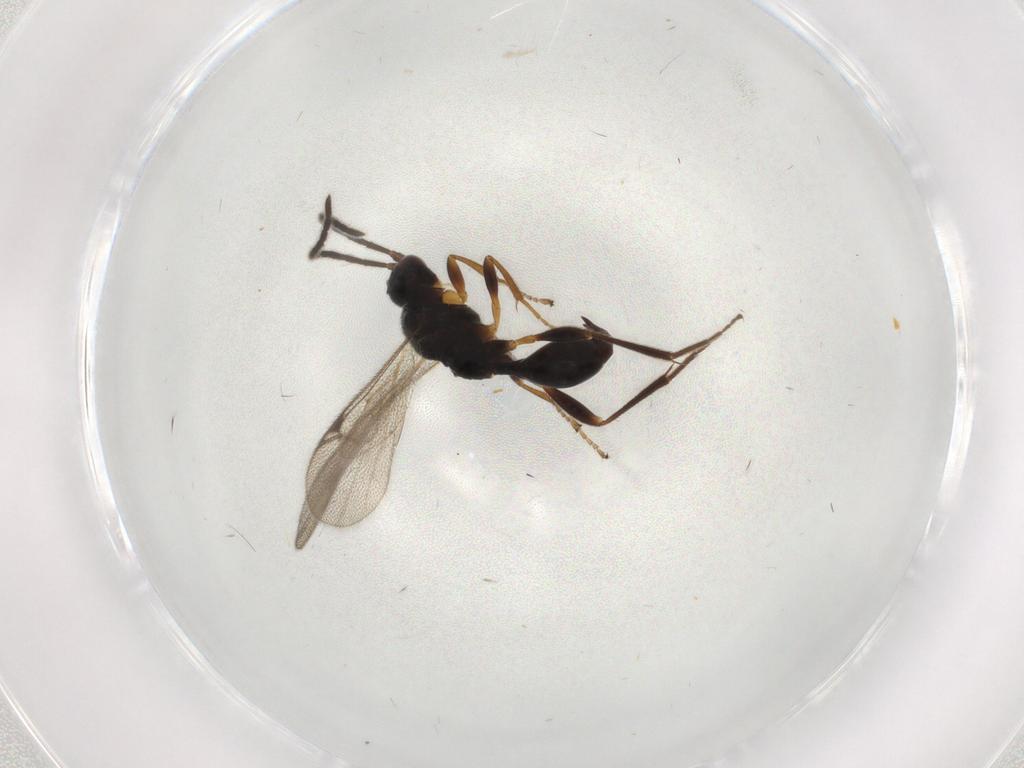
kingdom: Animalia
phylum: Arthropoda
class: Insecta
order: Hymenoptera
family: Proctotrupidae
